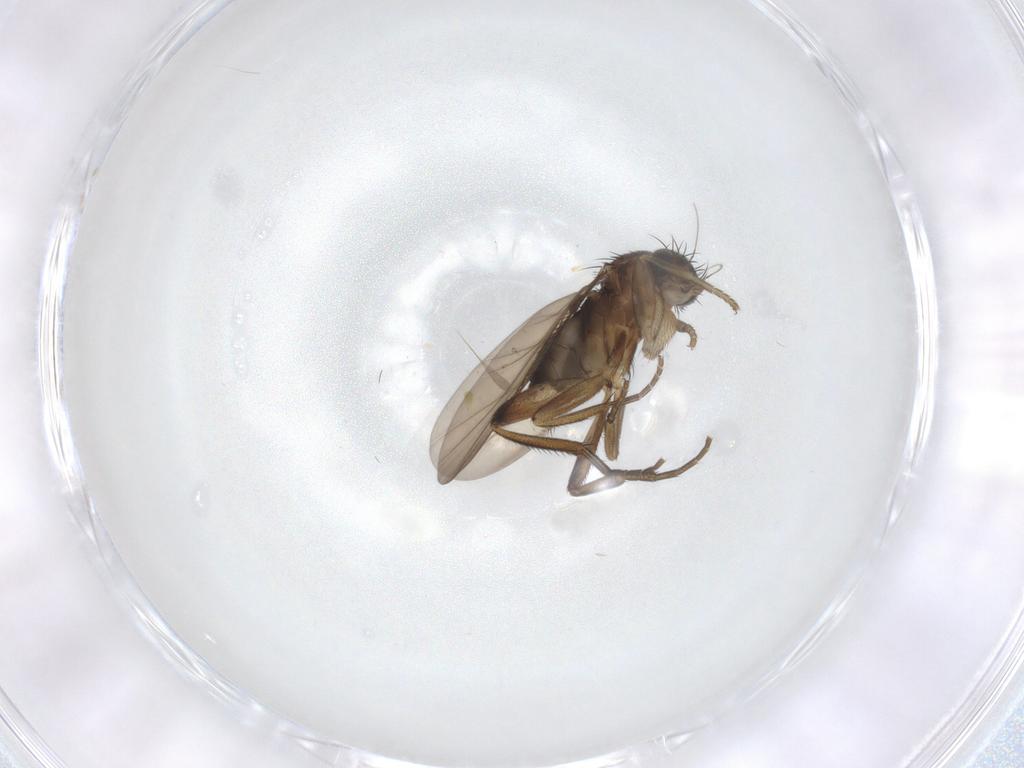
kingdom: Animalia
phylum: Arthropoda
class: Insecta
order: Diptera
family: Phoridae
